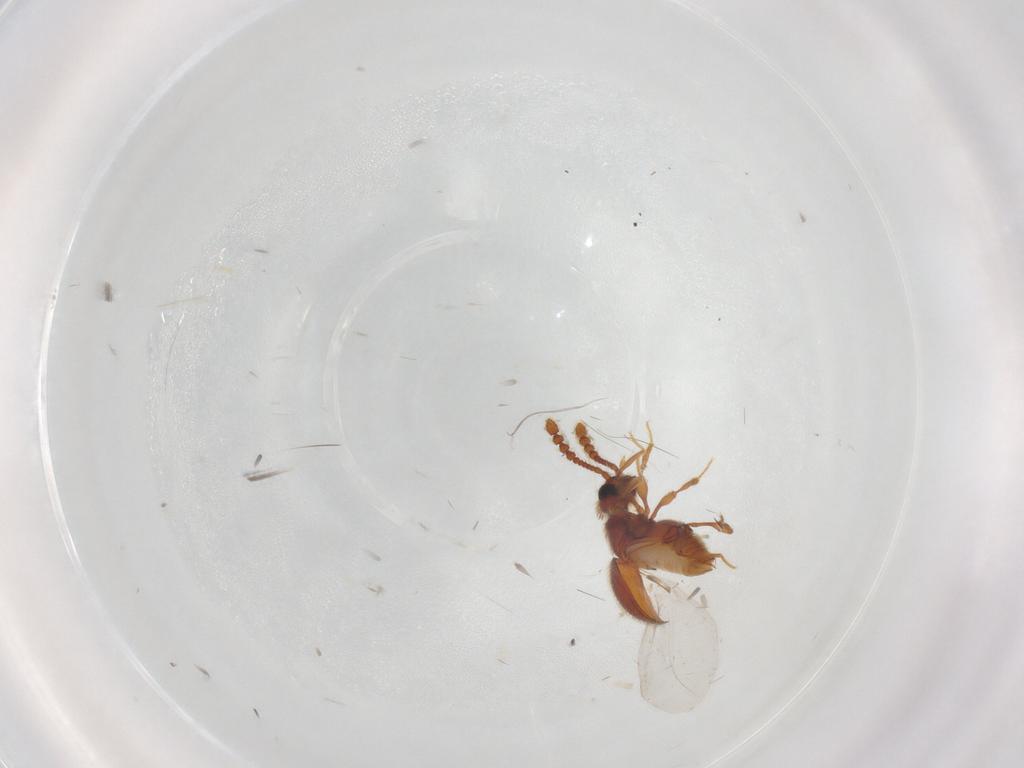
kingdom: Animalia
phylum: Arthropoda
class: Insecta
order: Coleoptera
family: Staphylinidae
